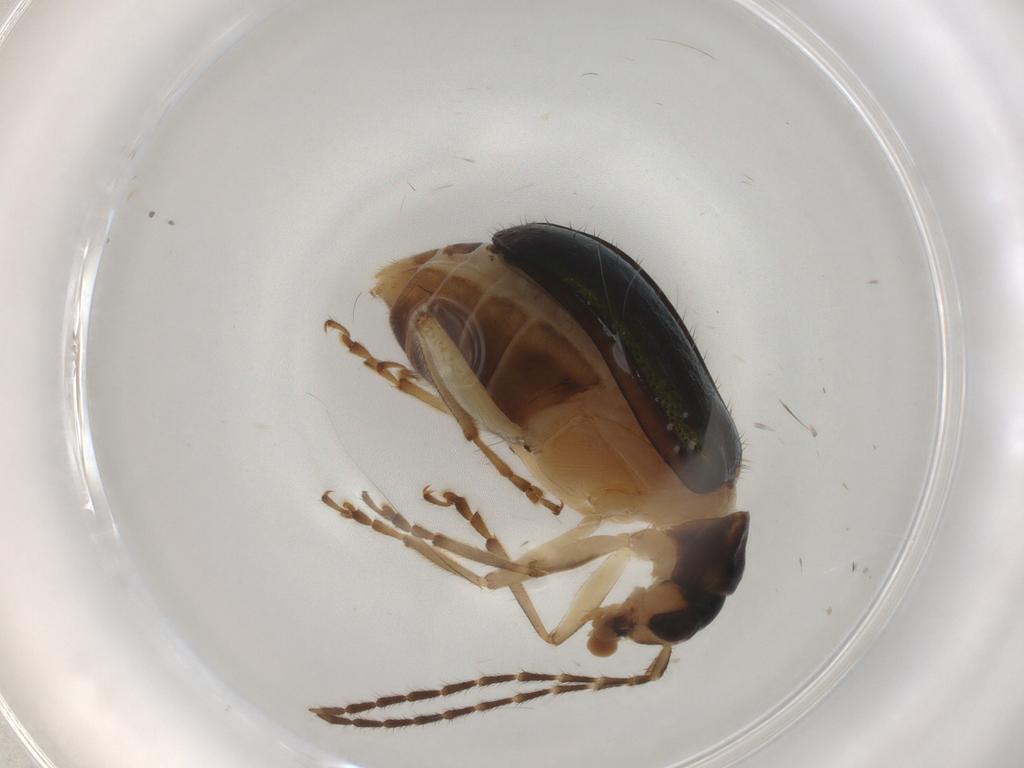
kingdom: Animalia
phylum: Arthropoda
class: Insecta
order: Coleoptera
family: Chrysomelidae
